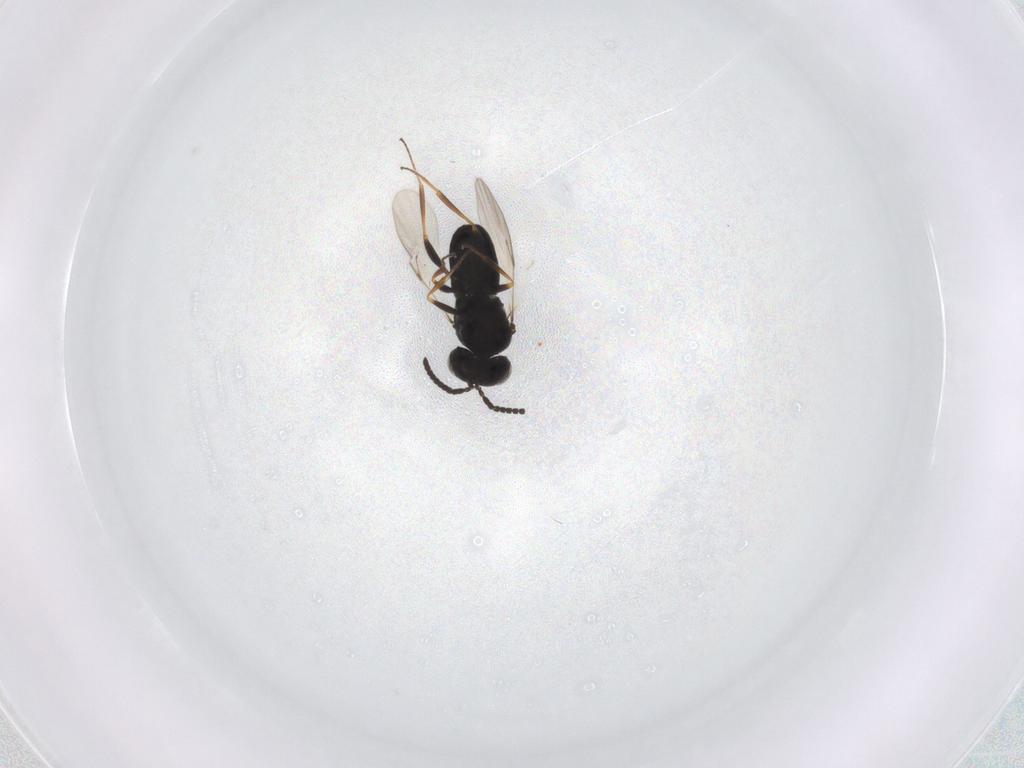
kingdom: Animalia
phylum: Arthropoda
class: Insecta
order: Hymenoptera
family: Scelionidae
